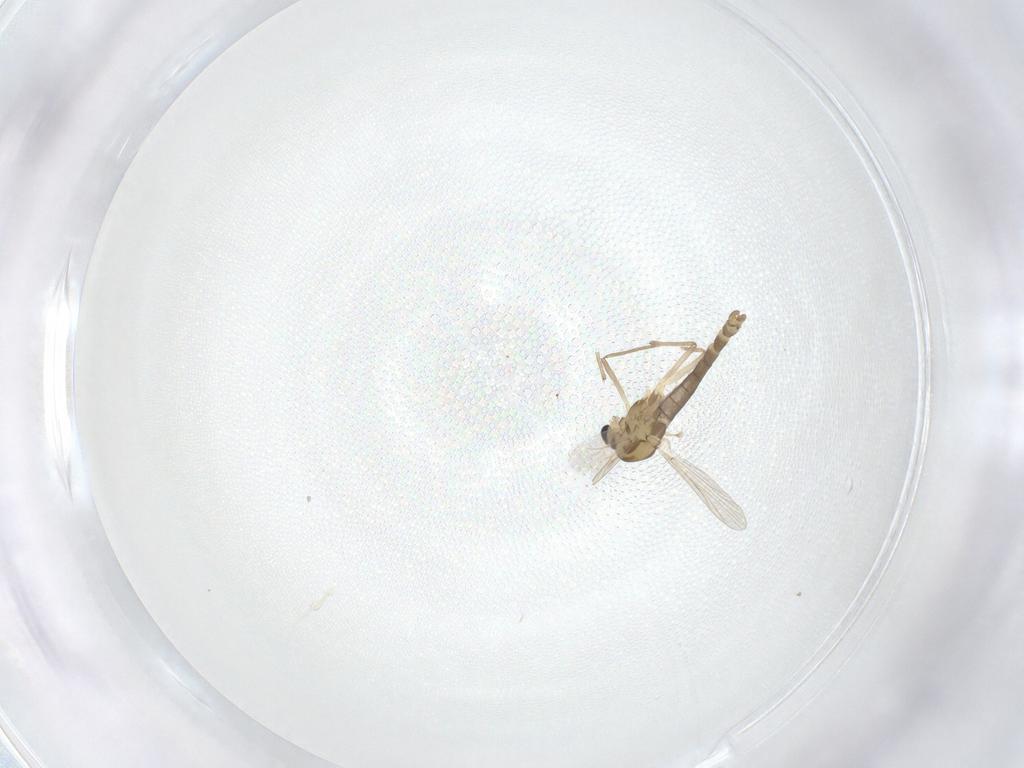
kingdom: Animalia
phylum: Arthropoda
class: Insecta
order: Diptera
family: Chironomidae
